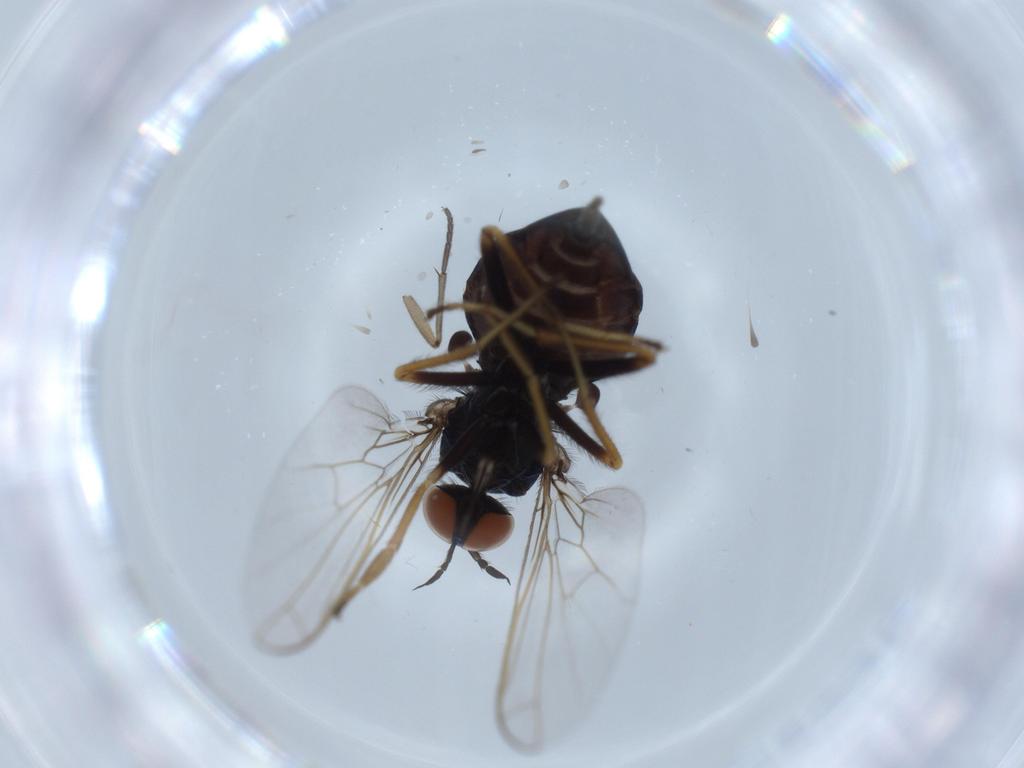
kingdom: Animalia
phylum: Arthropoda
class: Insecta
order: Diptera
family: Empididae
